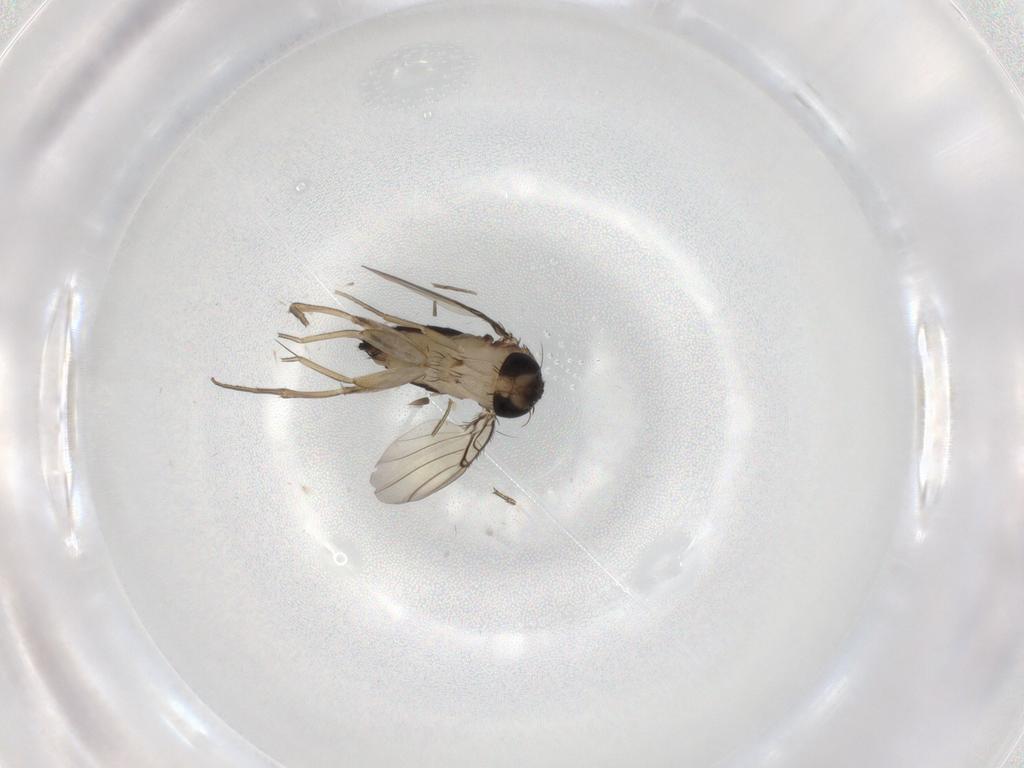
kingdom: Animalia
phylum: Arthropoda
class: Insecta
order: Diptera
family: Phoridae
